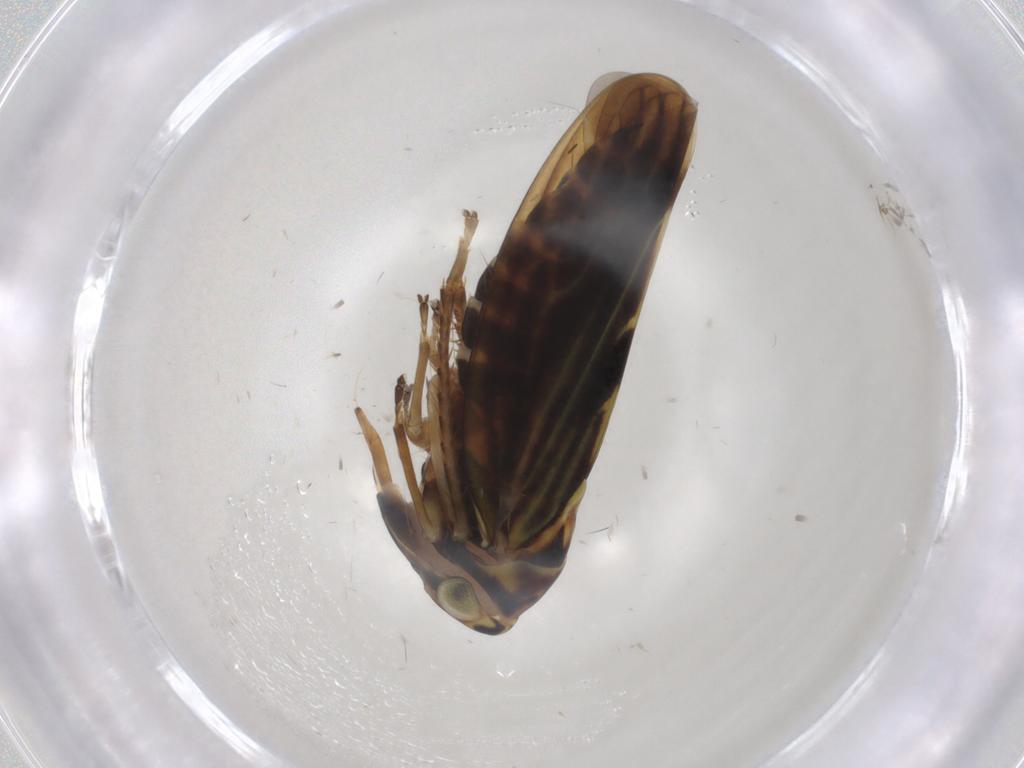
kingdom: Animalia
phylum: Arthropoda
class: Insecta
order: Hemiptera
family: Cicadellidae
